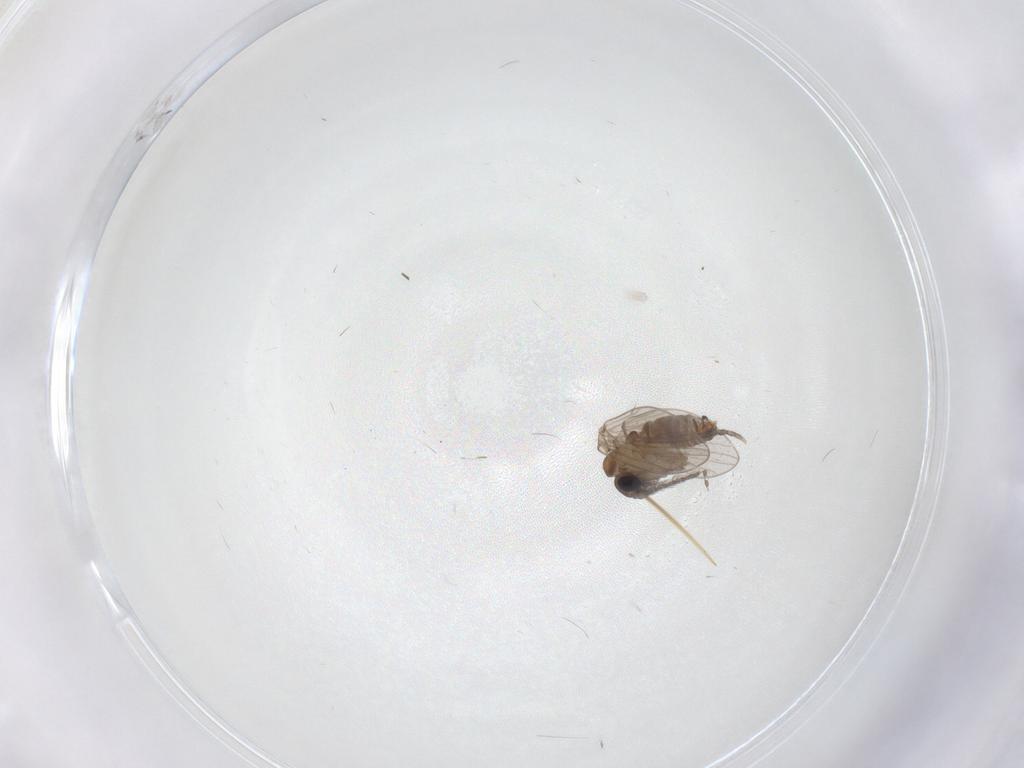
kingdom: Animalia
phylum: Arthropoda
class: Insecta
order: Diptera
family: Psychodidae
